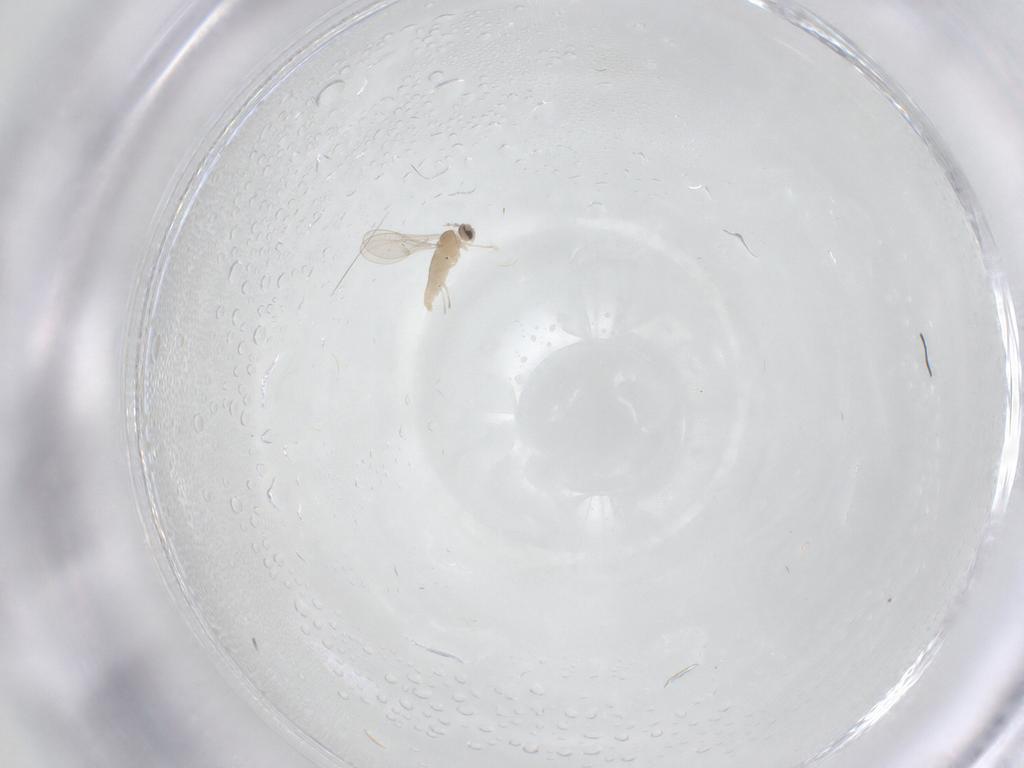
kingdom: Animalia
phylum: Arthropoda
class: Insecta
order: Diptera
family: Cecidomyiidae
